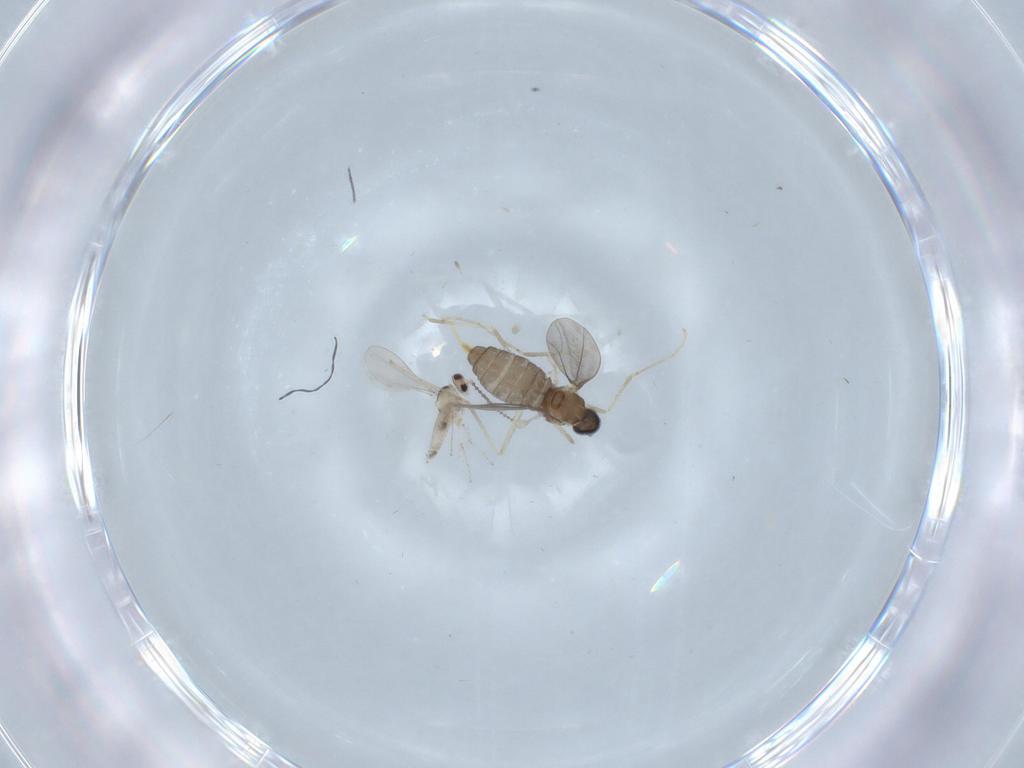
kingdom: Animalia
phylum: Arthropoda
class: Insecta
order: Diptera
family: Cecidomyiidae
